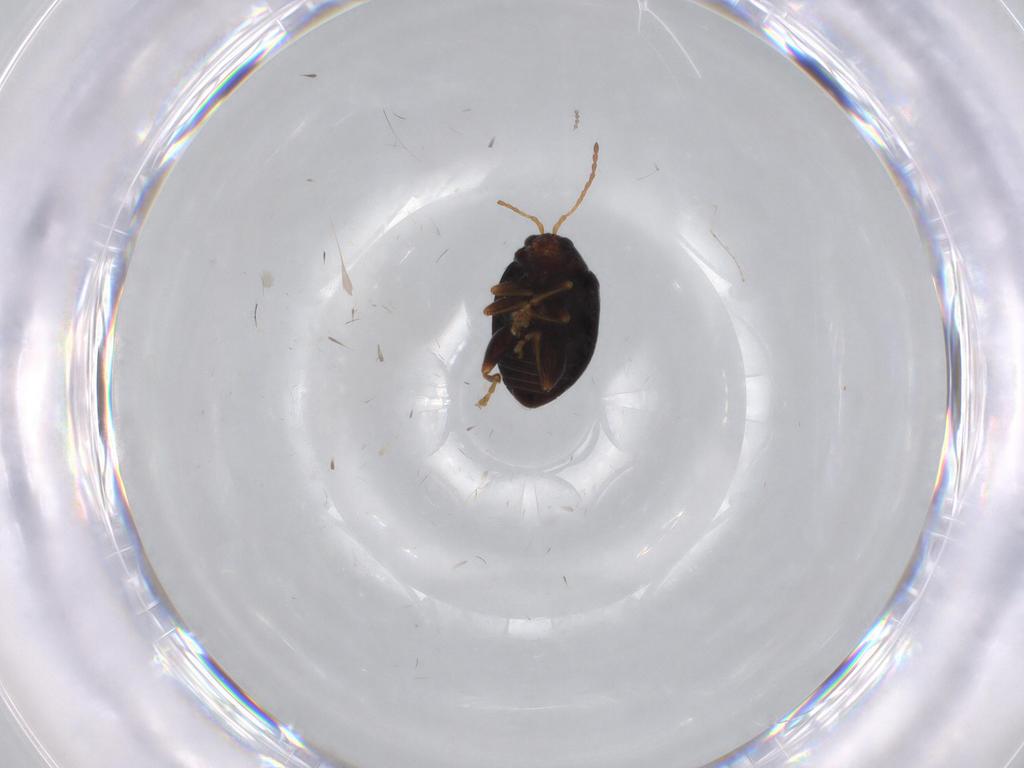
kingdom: Animalia
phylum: Arthropoda
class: Insecta
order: Coleoptera
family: Chrysomelidae
